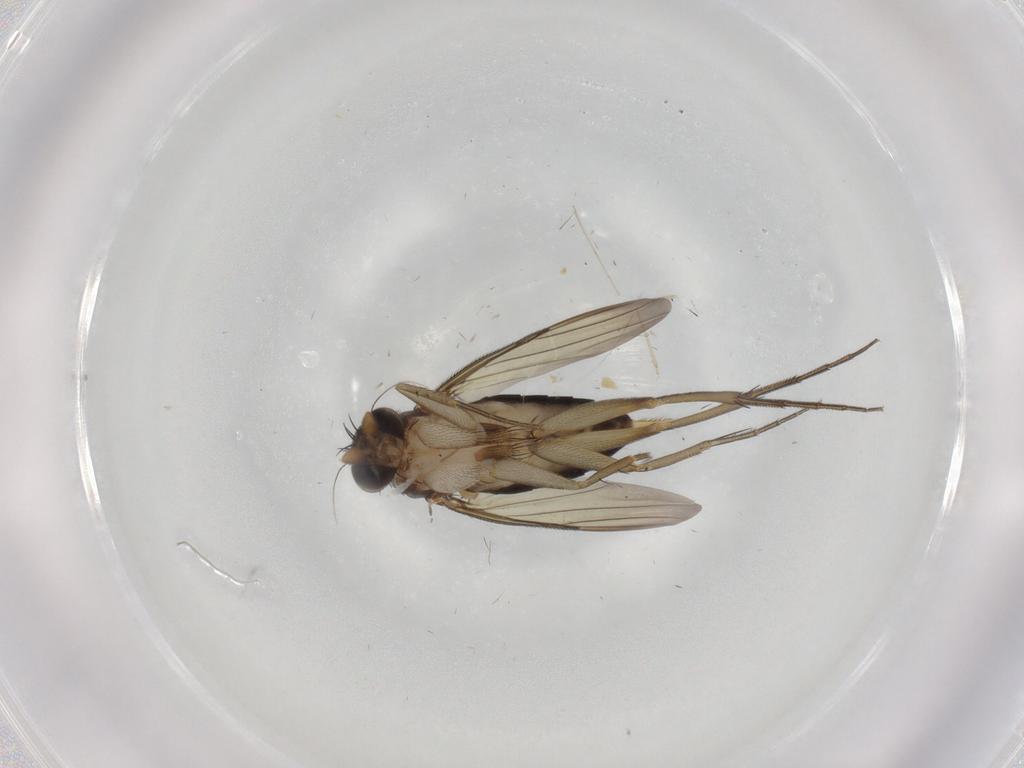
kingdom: Animalia
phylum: Arthropoda
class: Insecta
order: Diptera
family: Phoridae
